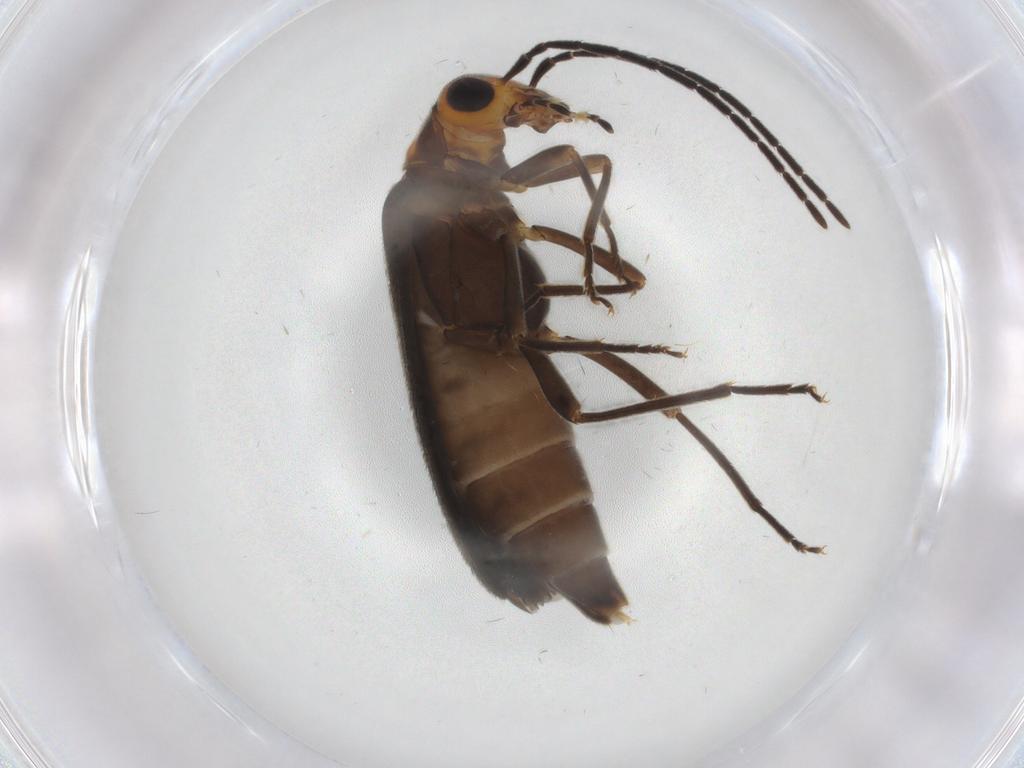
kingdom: Animalia
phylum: Arthropoda
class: Insecta
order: Coleoptera
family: Oedemeridae
